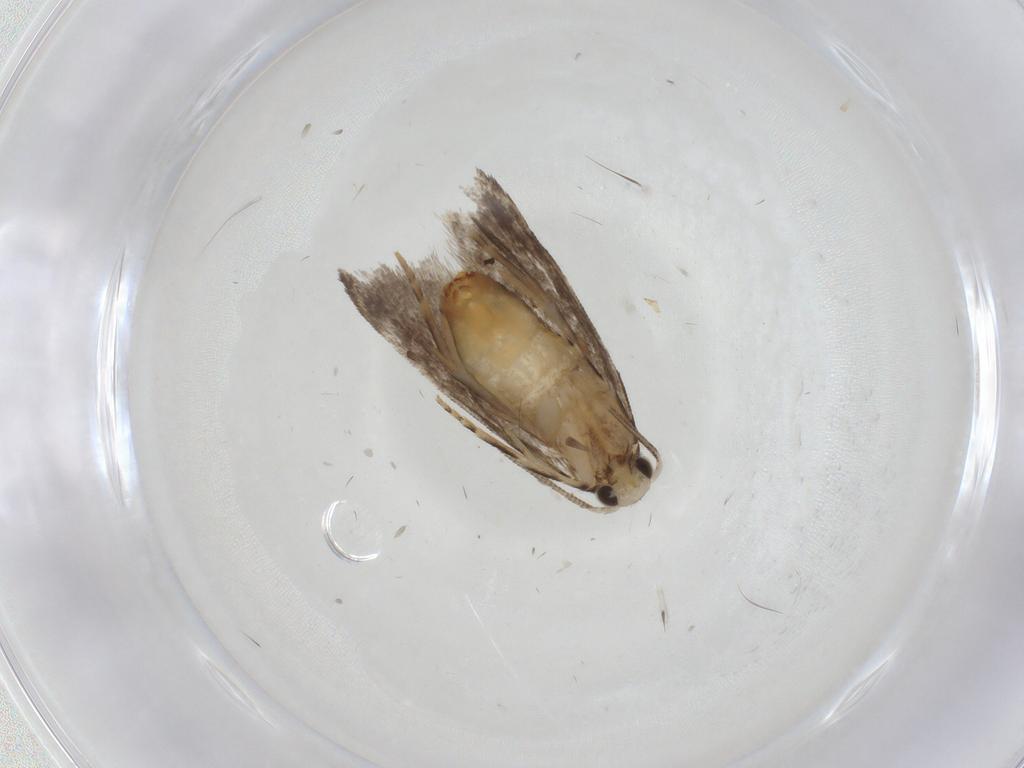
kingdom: Animalia
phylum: Arthropoda
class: Insecta
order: Lepidoptera
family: Dryadaulidae
